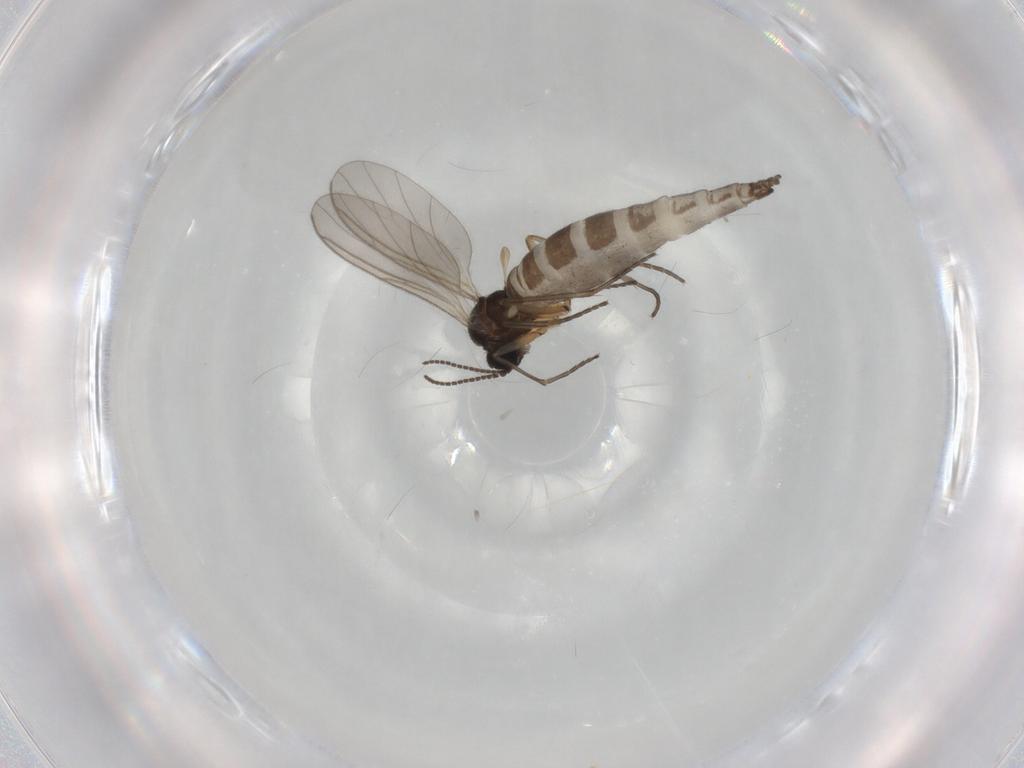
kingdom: Animalia
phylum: Arthropoda
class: Insecta
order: Diptera
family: Sciaridae
